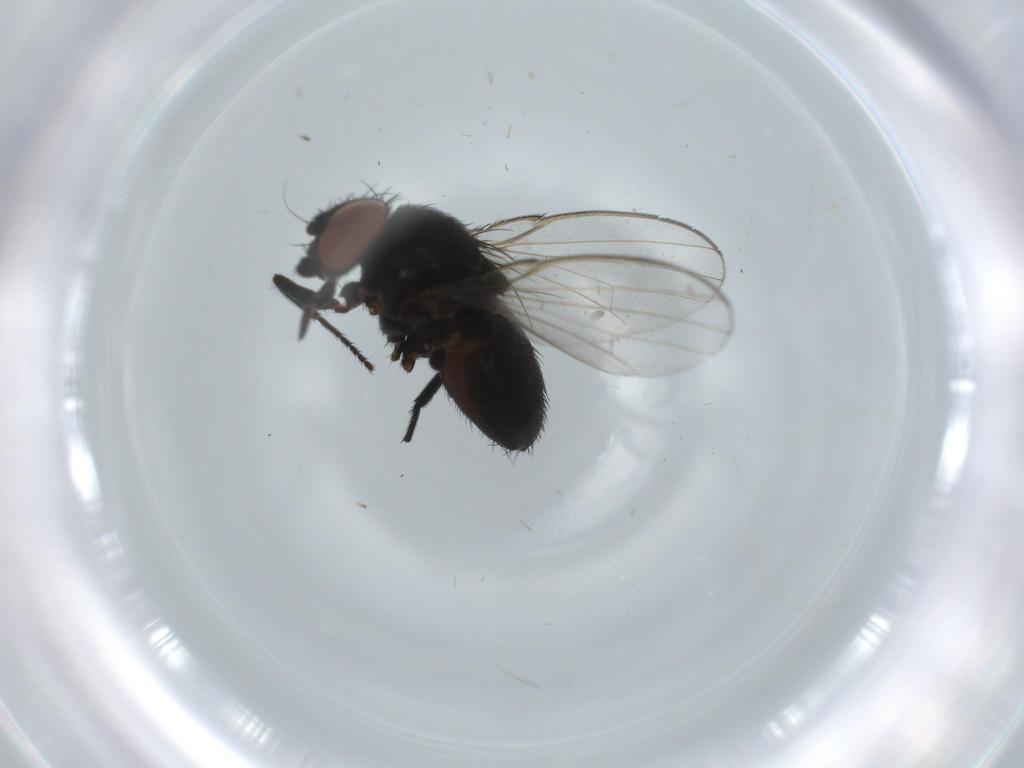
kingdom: Animalia
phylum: Arthropoda
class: Insecta
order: Diptera
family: Milichiidae
